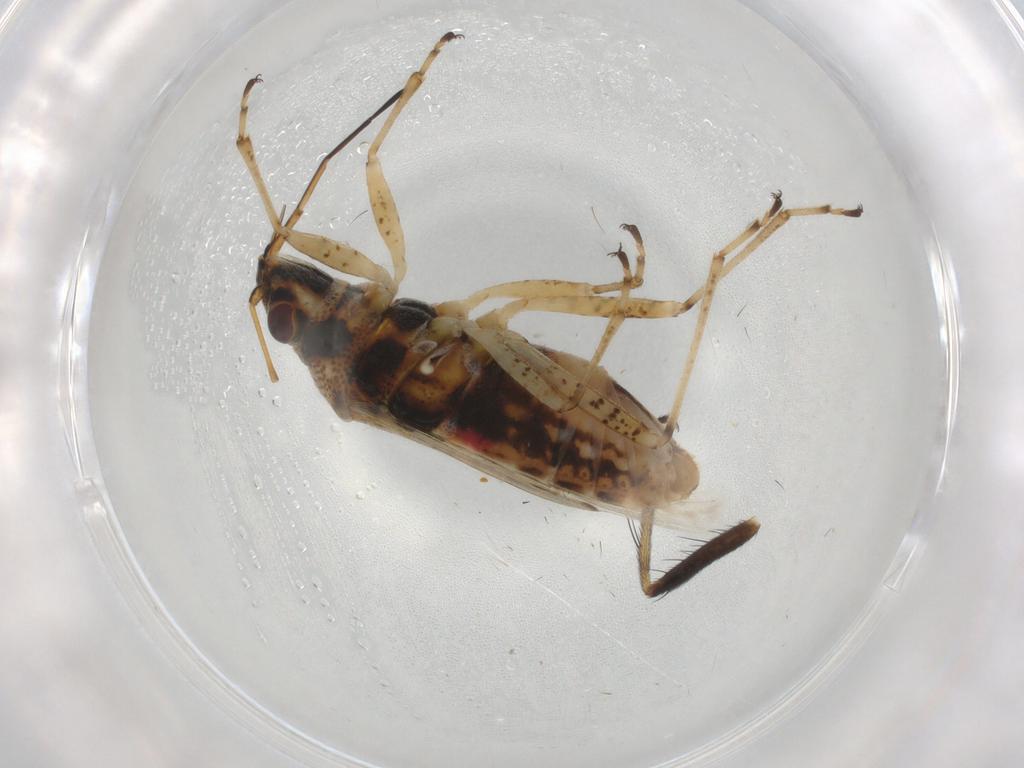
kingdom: Animalia
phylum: Arthropoda
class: Insecta
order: Hemiptera
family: Lygaeidae
